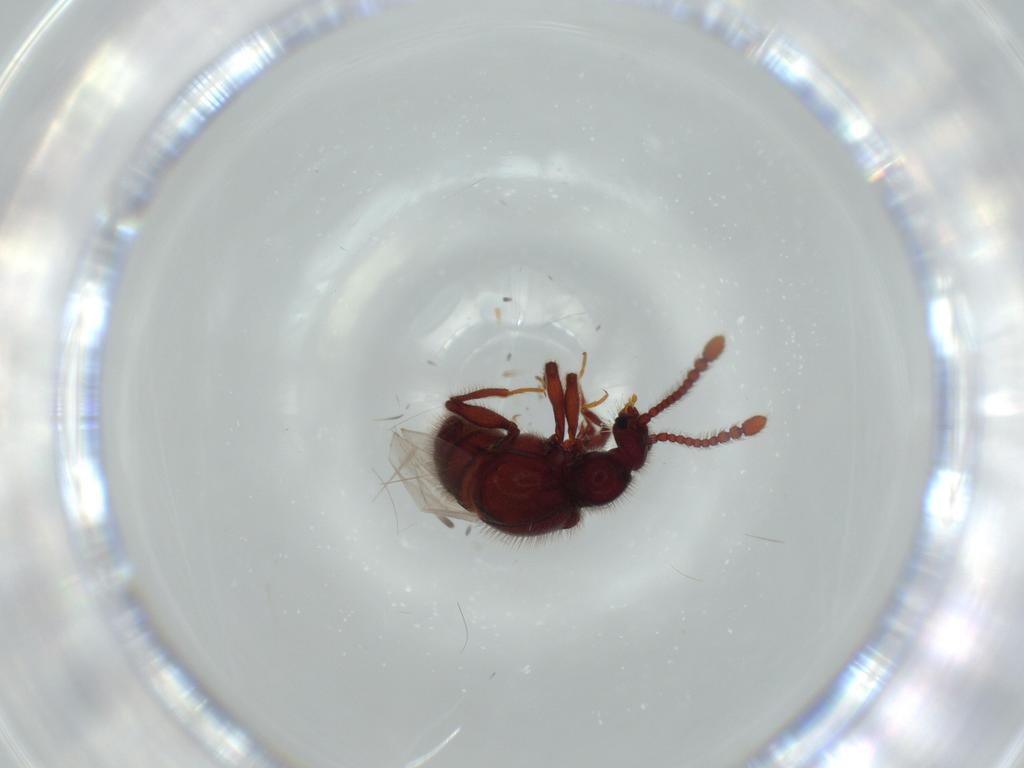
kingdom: Animalia
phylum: Arthropoda
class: Insecta
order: Coleoptera
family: Staphylinidae
